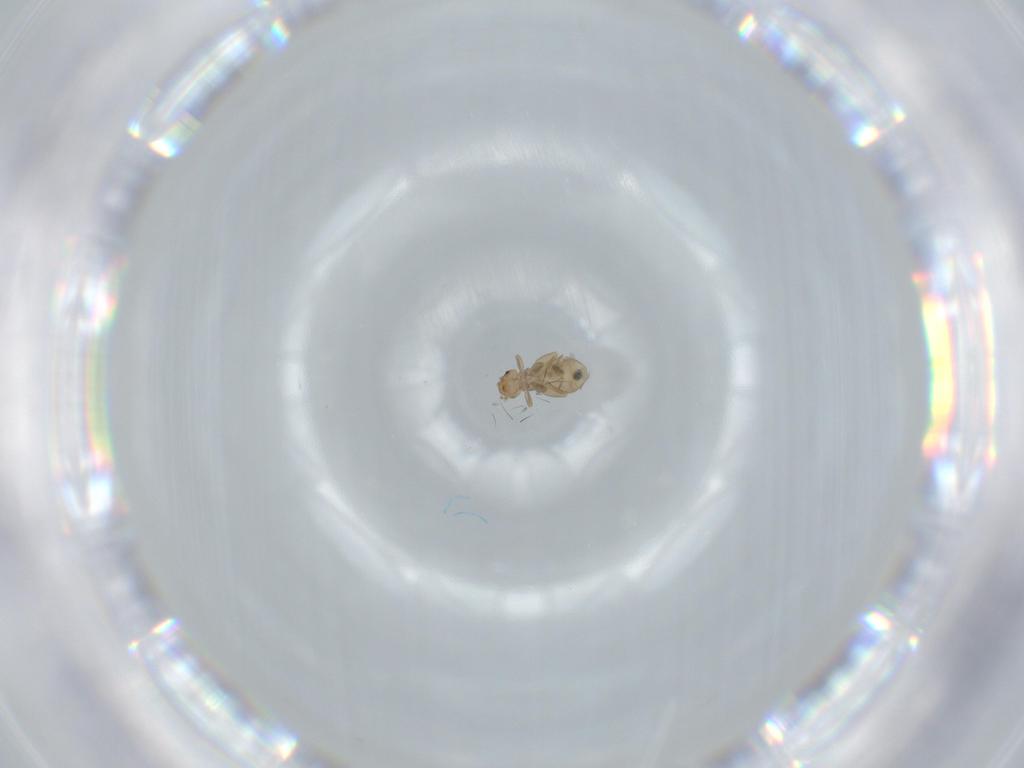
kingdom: Animalia
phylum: Arthropoda
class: Insecta
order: Psocodea
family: Liposcelididae
